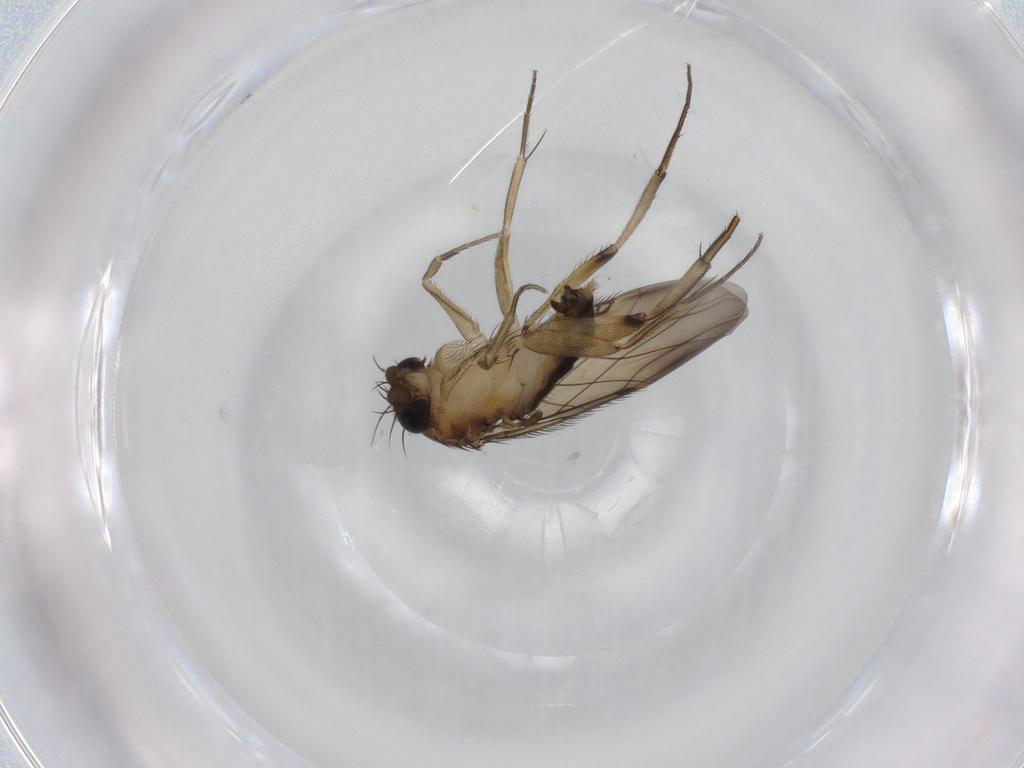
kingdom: Animalia
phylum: Arthropoda
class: Insecta
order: Diptera
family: Phoridae
